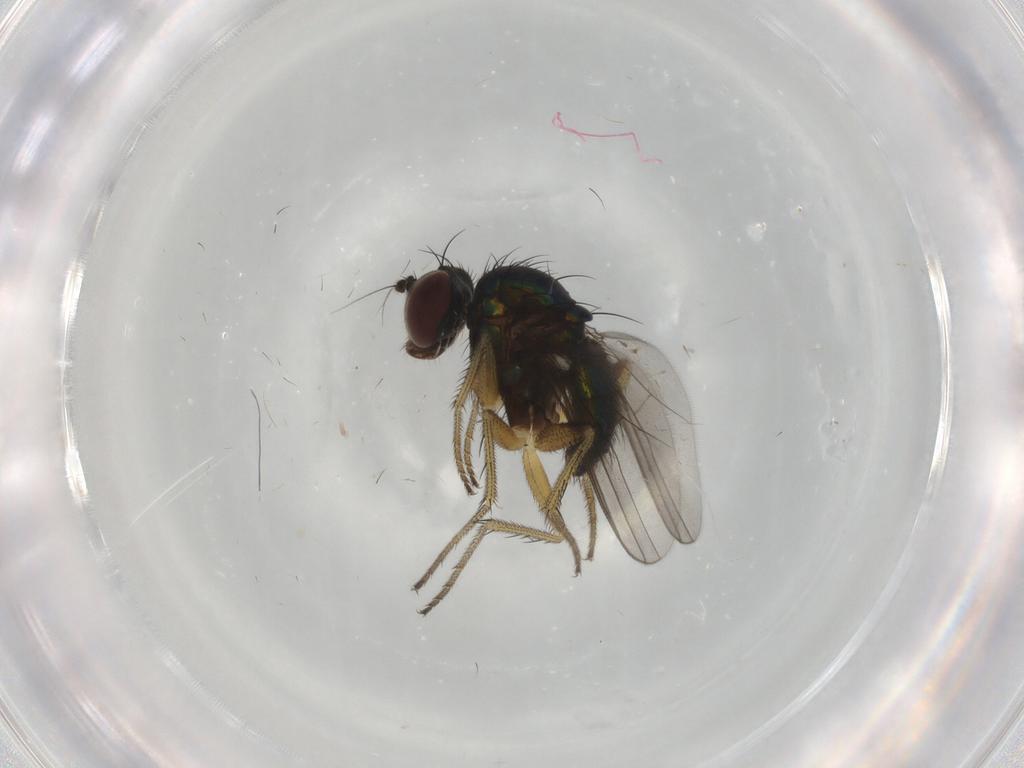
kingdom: Animalia
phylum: Arthropoda
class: Insecta
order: Diptera
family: Dolichopodidae
